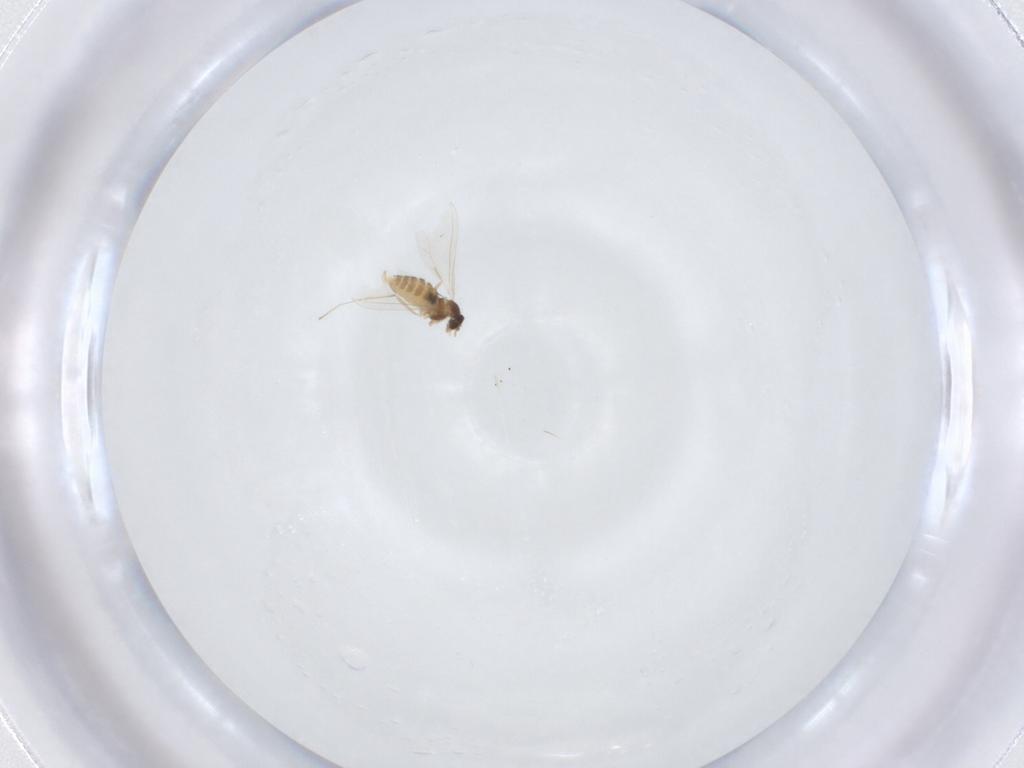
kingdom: Animalia
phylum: Arthropoda
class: Insecta
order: Diptera
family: Cecidomyiidae
